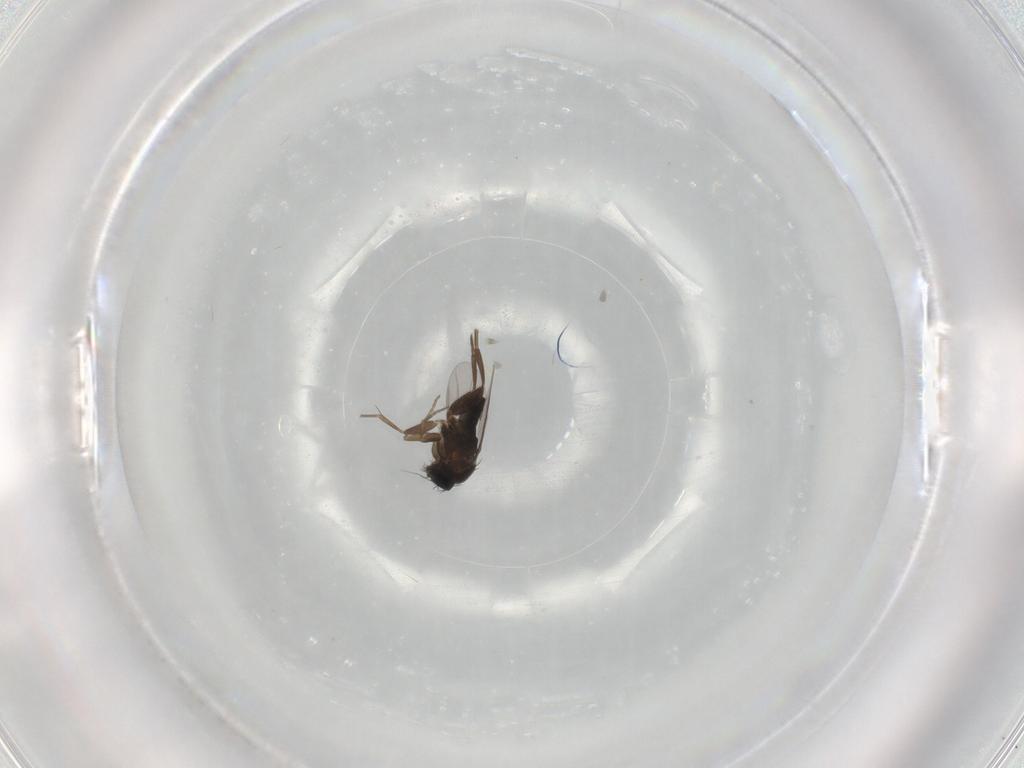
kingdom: Animalia
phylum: Arthropoda
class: Insecta
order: Diptera
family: Phoridae
